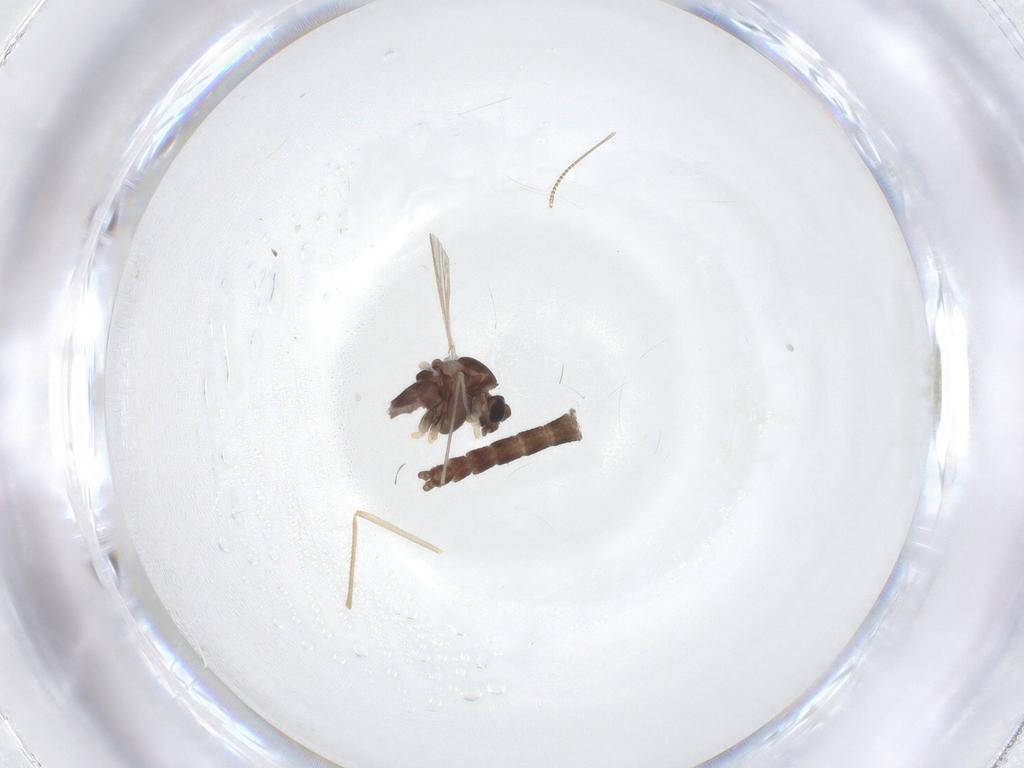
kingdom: Animalia
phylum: Arthropoda
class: Insecta
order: Diptera
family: Chironomidae
